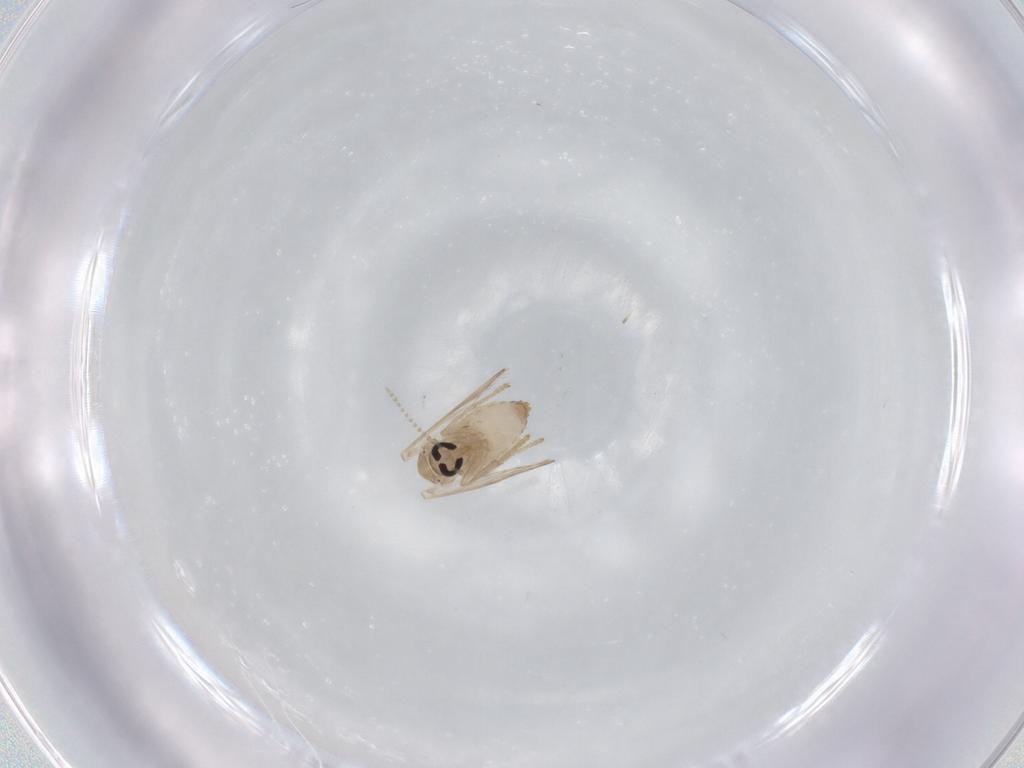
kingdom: Animalia
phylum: Arthropoda
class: Insecta
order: Diptera
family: Psychodidae
